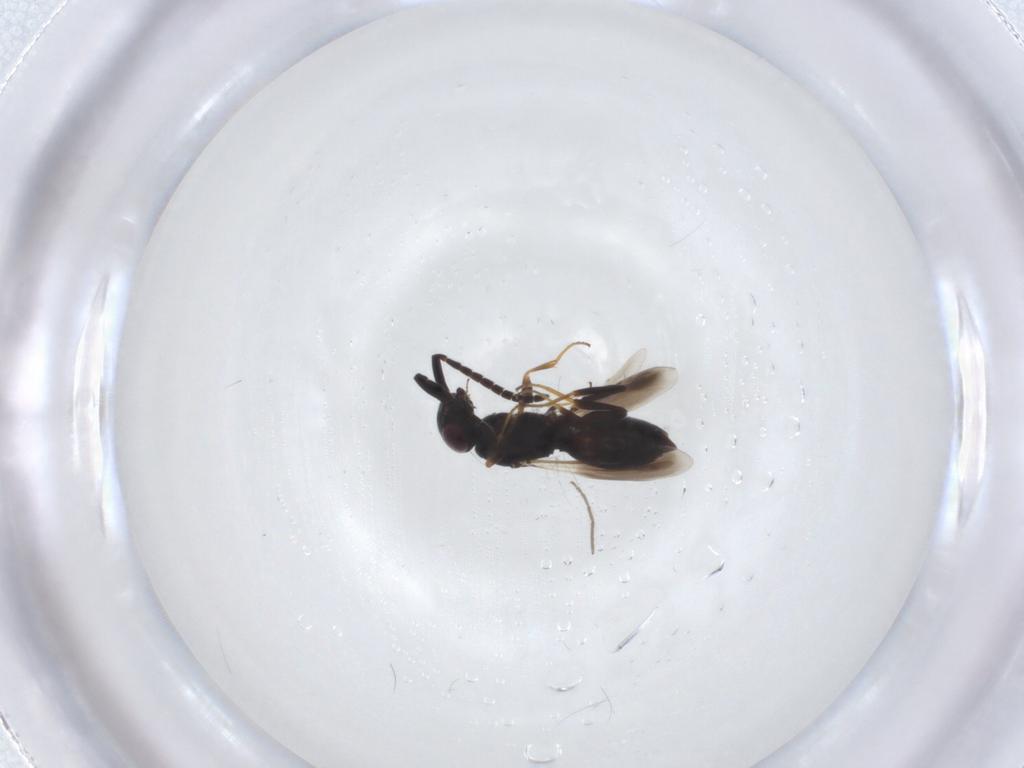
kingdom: Animalia
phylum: Arthropoda
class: Insecta
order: Hymenoptera
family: Megaspilidae
